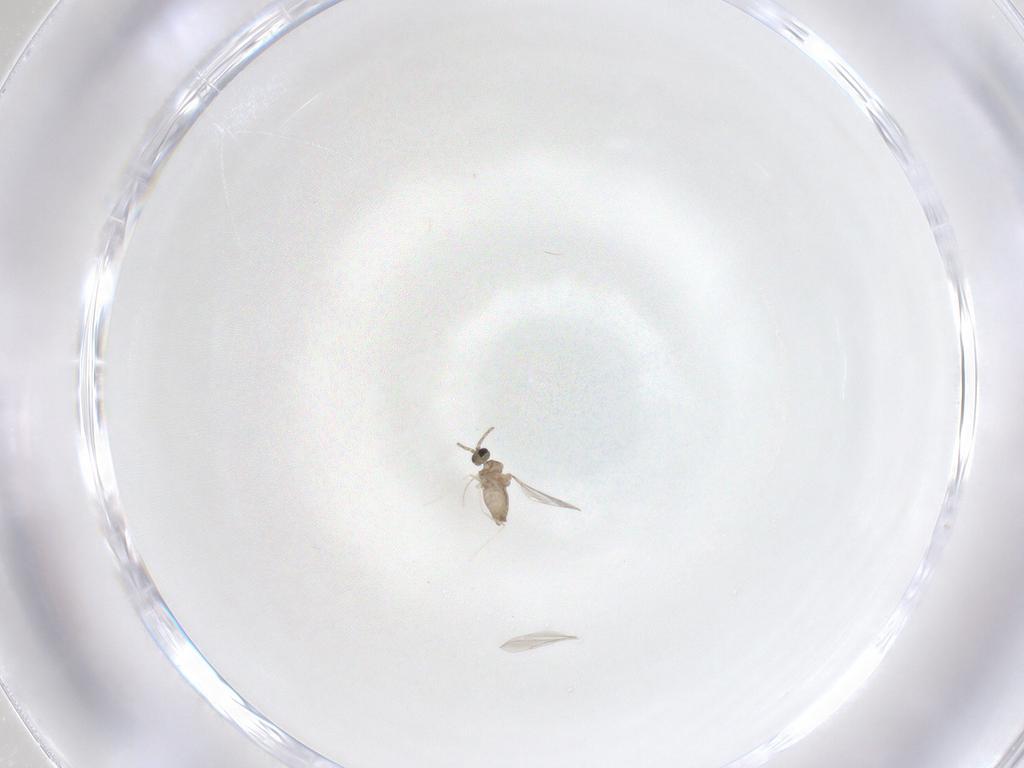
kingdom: Animalia
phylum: Arthropoda
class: Insecta
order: Diptera
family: Cecidomyiidae
